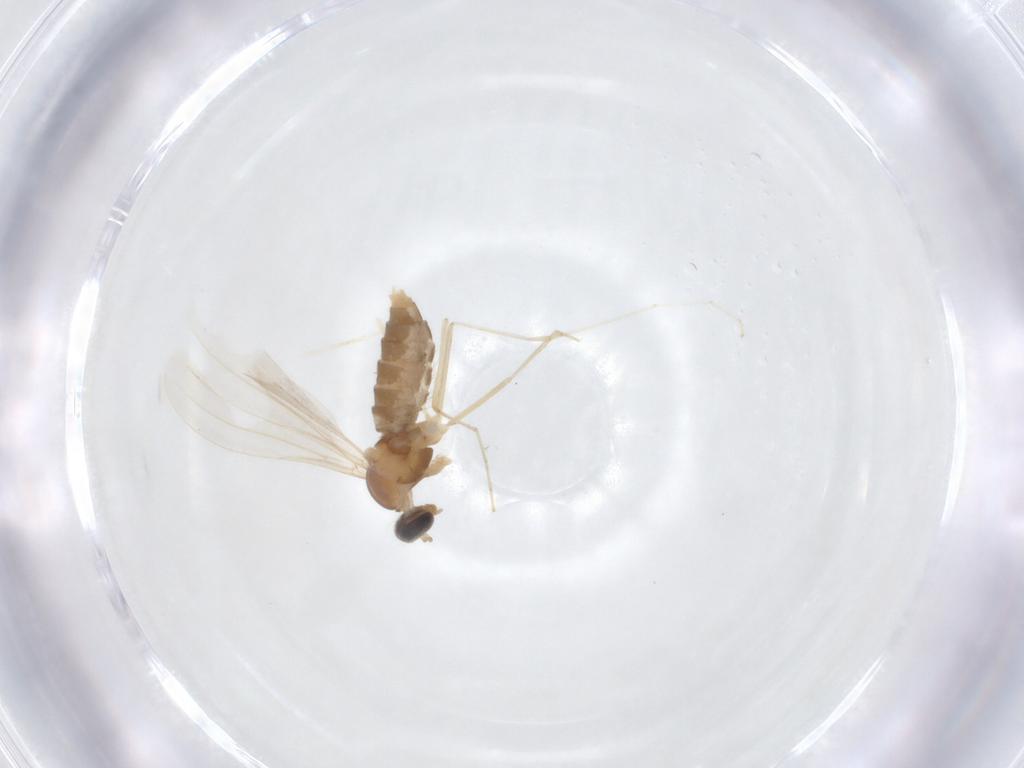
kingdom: Animalia
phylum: Arthropoda
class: Insecta
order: Diptera
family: Cecidomyiidae
